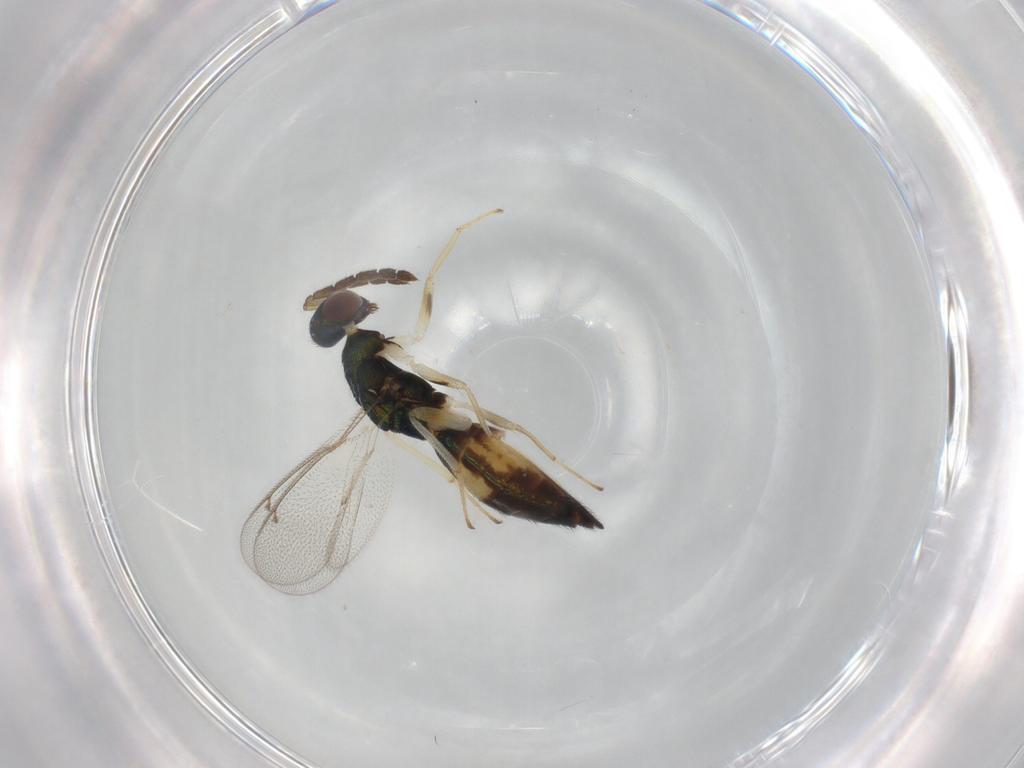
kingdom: Animalia
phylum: Arthropoda
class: Insecta
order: Hymenoptera
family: Eulophidae
